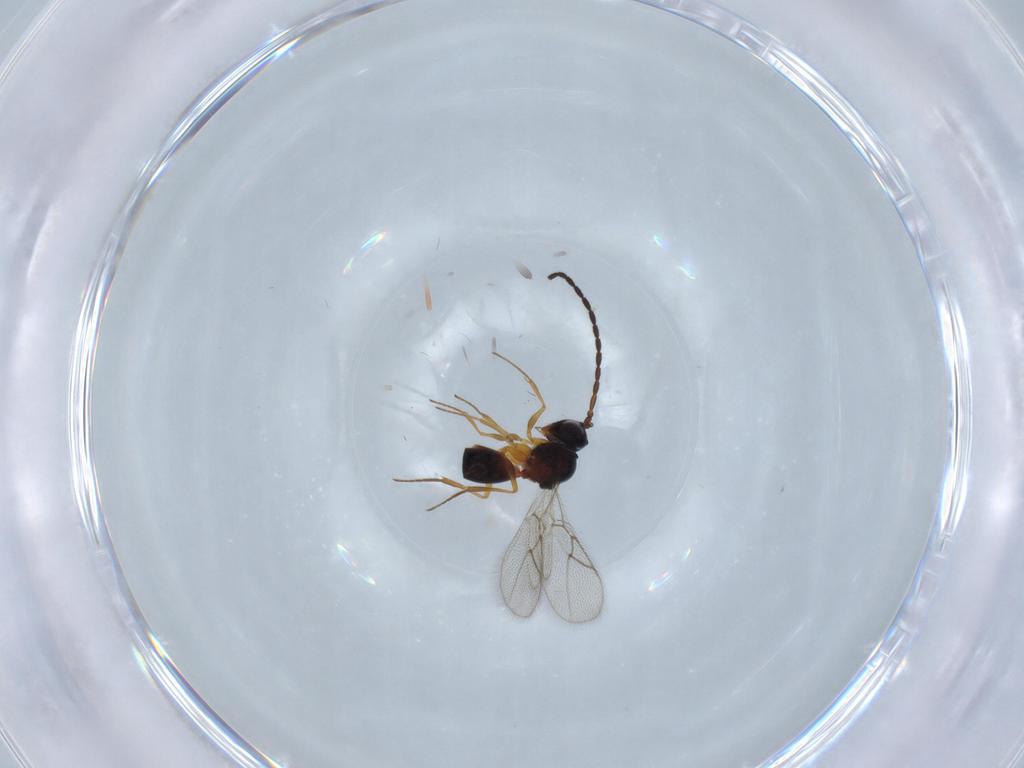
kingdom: Animalia
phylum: Arthropoda
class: Insecta
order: Hymenoptera
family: Figitidae
